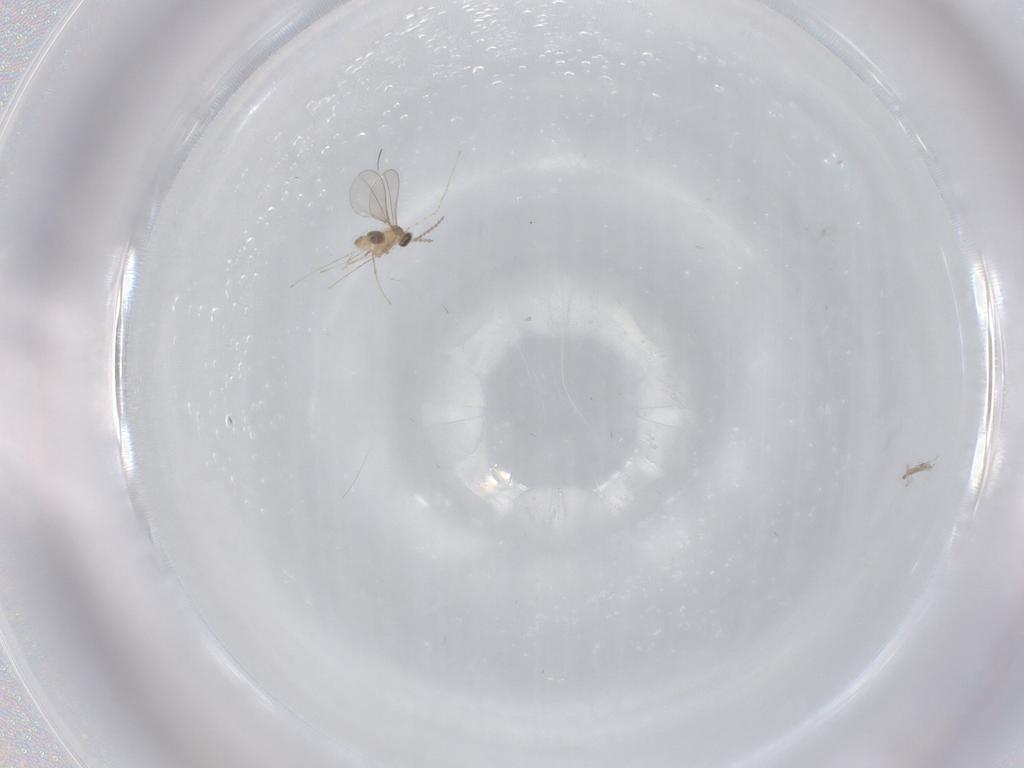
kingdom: Animalia
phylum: Arthropoda
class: Insecta
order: Diptera
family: Cecidomyiidae
